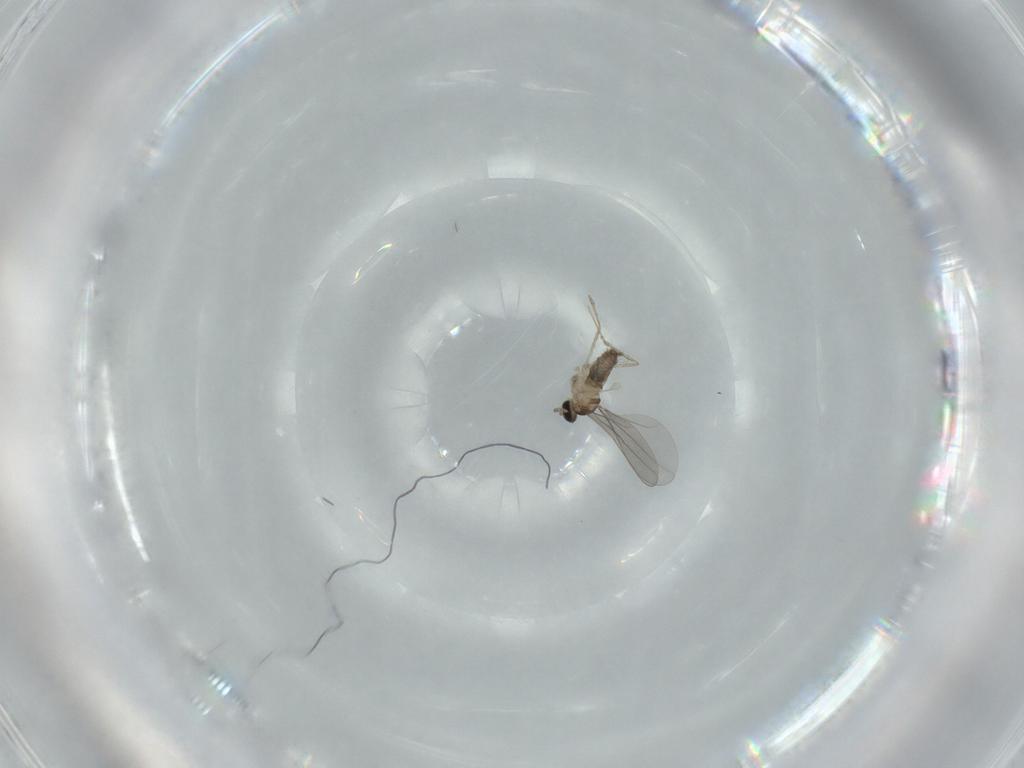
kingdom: Animalia
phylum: Arthropoda
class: Insecta
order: Diptera
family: Cecidomyiidae
